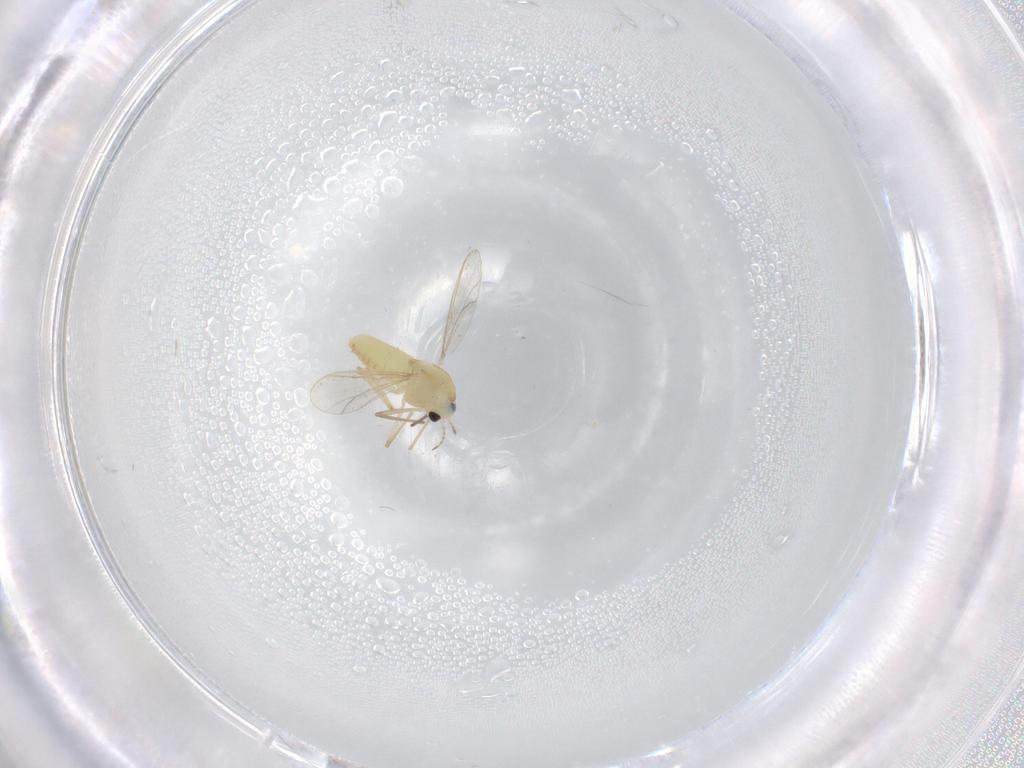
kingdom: Animalia
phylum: Arthropoda
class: Insecta
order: Diptera
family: Chironomidae
